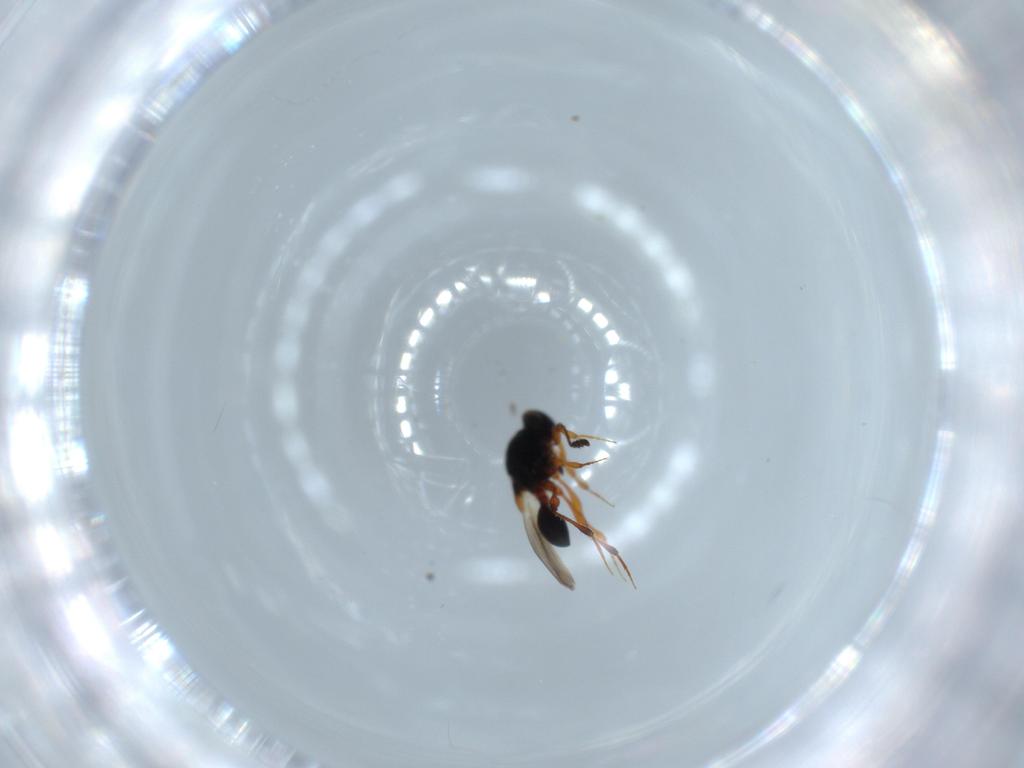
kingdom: Animalia
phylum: Arthropoda
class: Insecta
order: Hymenoptera
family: Platygastridae
